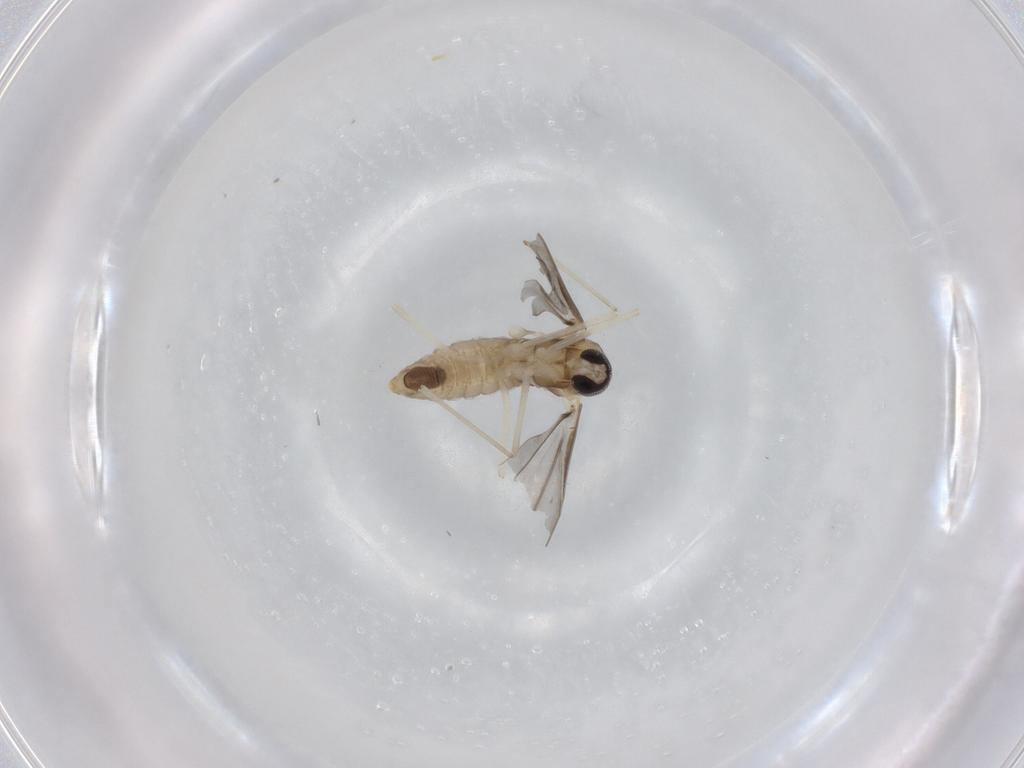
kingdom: Animalia
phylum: Arthropoda
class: Insecta
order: Diptera
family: Cecidomyiidae
